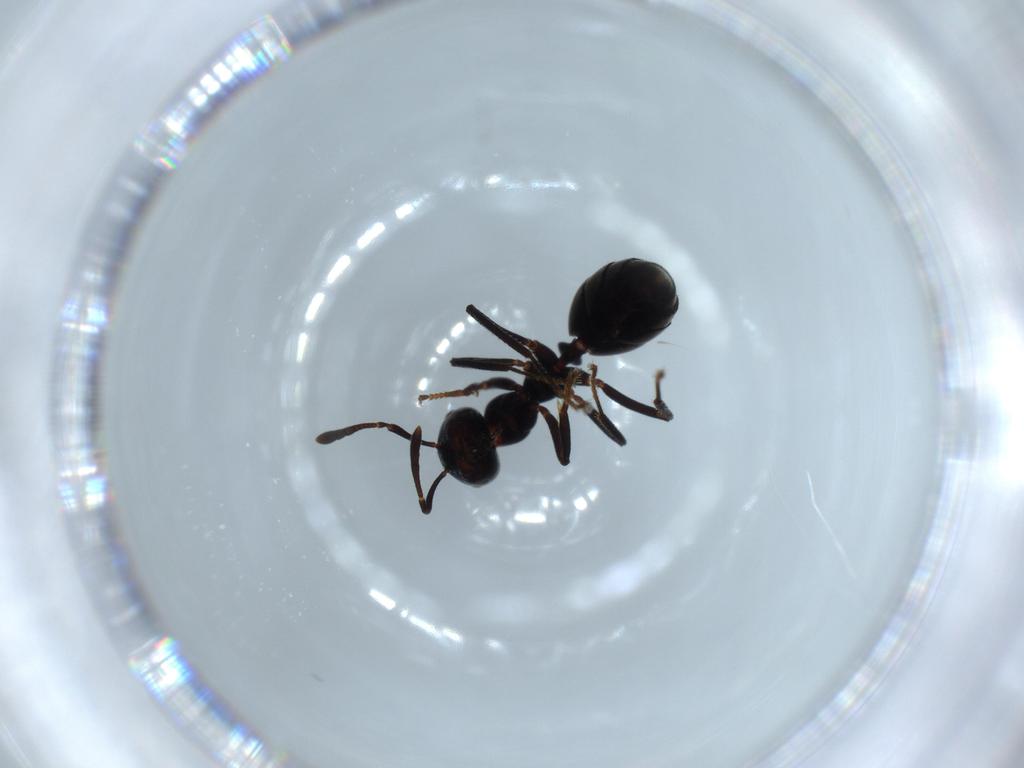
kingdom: Animalia
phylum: Arthropoda
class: Insecta
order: Hymenoptera
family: Formicidae
